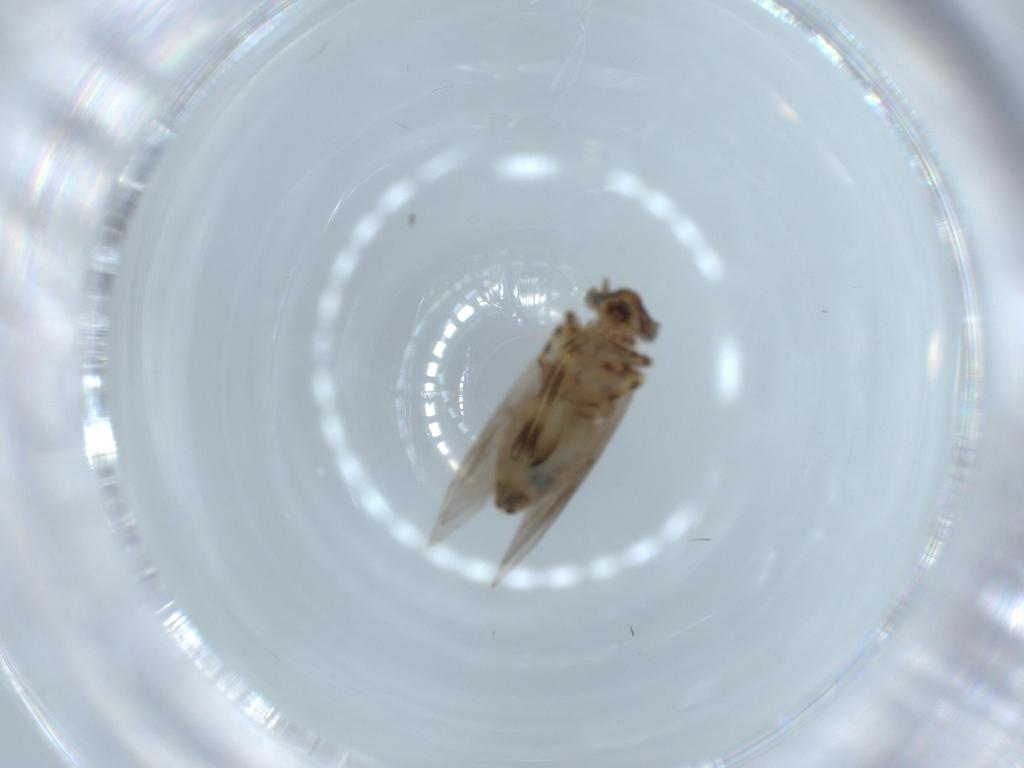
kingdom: Animalia
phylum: Arthropoda
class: Insecta
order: Psocodea
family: Lepidopsocidae
